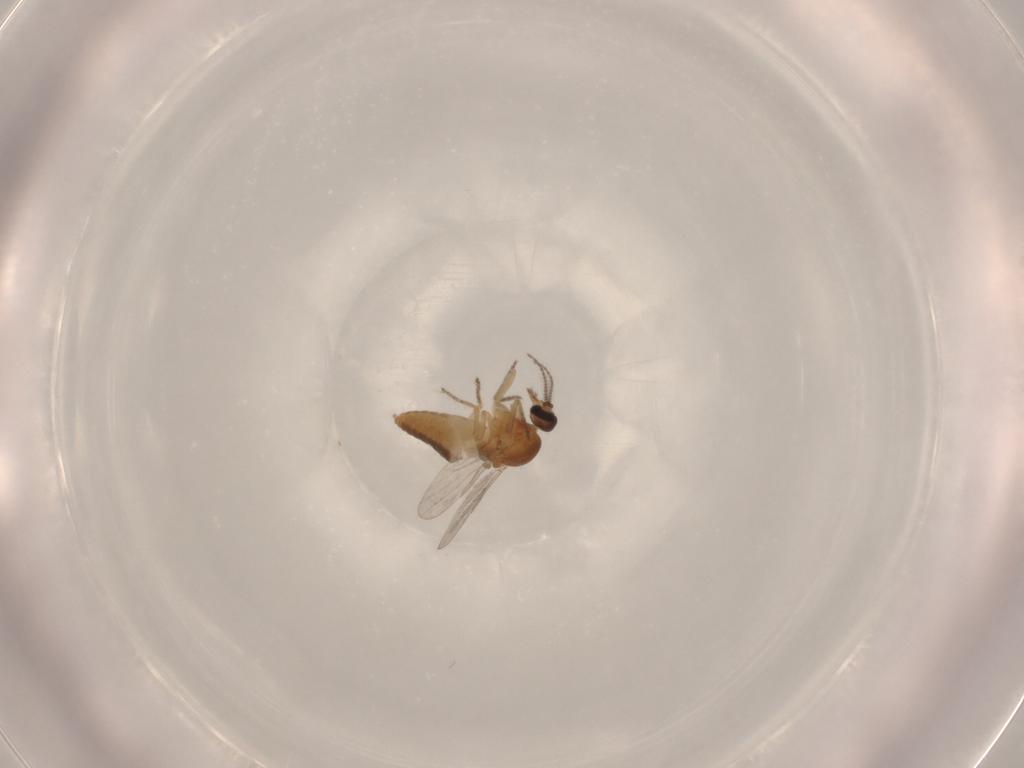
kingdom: Animalia
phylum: Arthropoda
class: Insecta
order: Diptera
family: Ceratopogonidae
